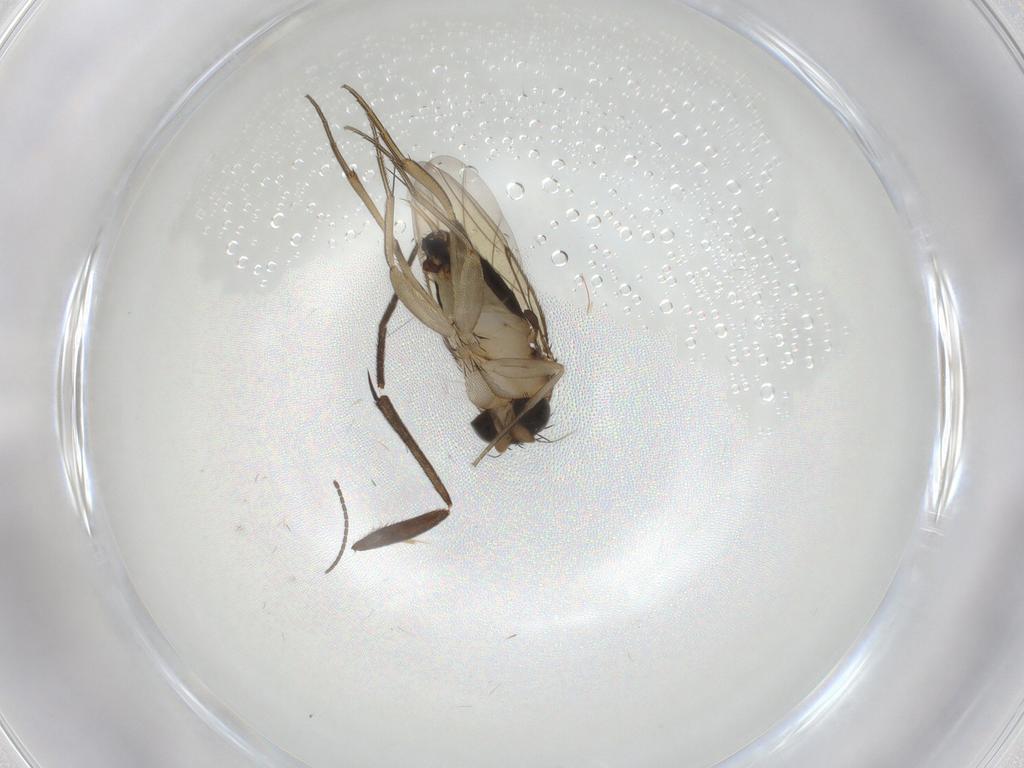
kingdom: Animalia
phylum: Arthropoda
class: Insecta
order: Diptera
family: Phoridae
